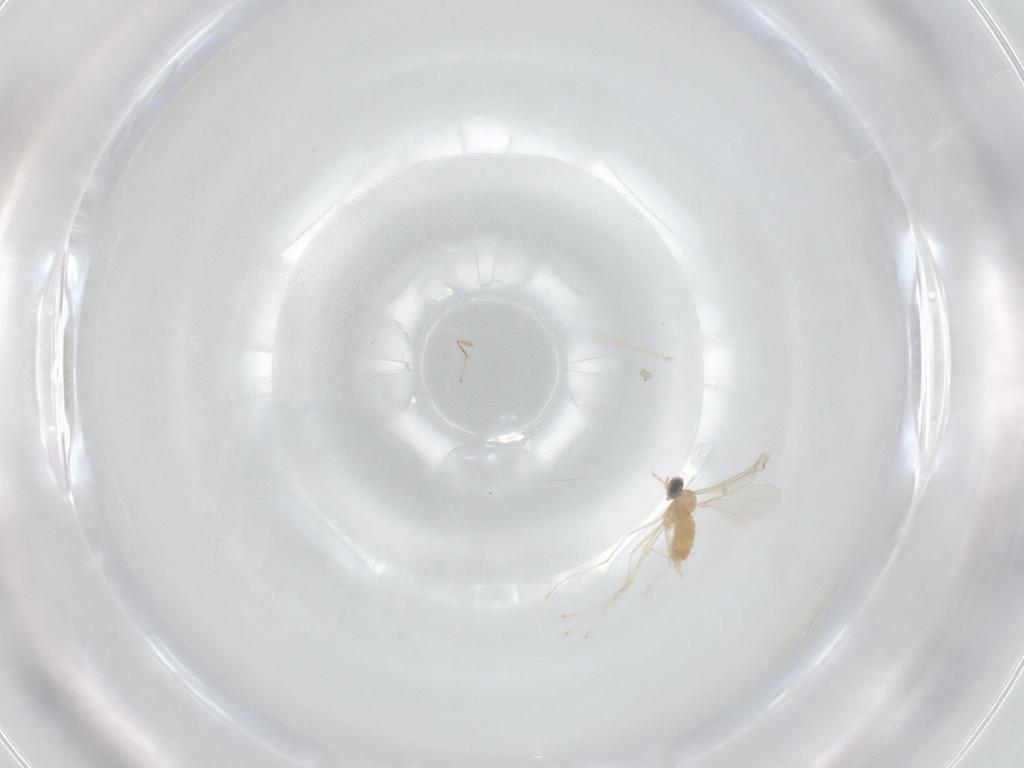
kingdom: Animalia
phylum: Arthropoda
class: Insecta
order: Diptera
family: Cecidomyiidae
